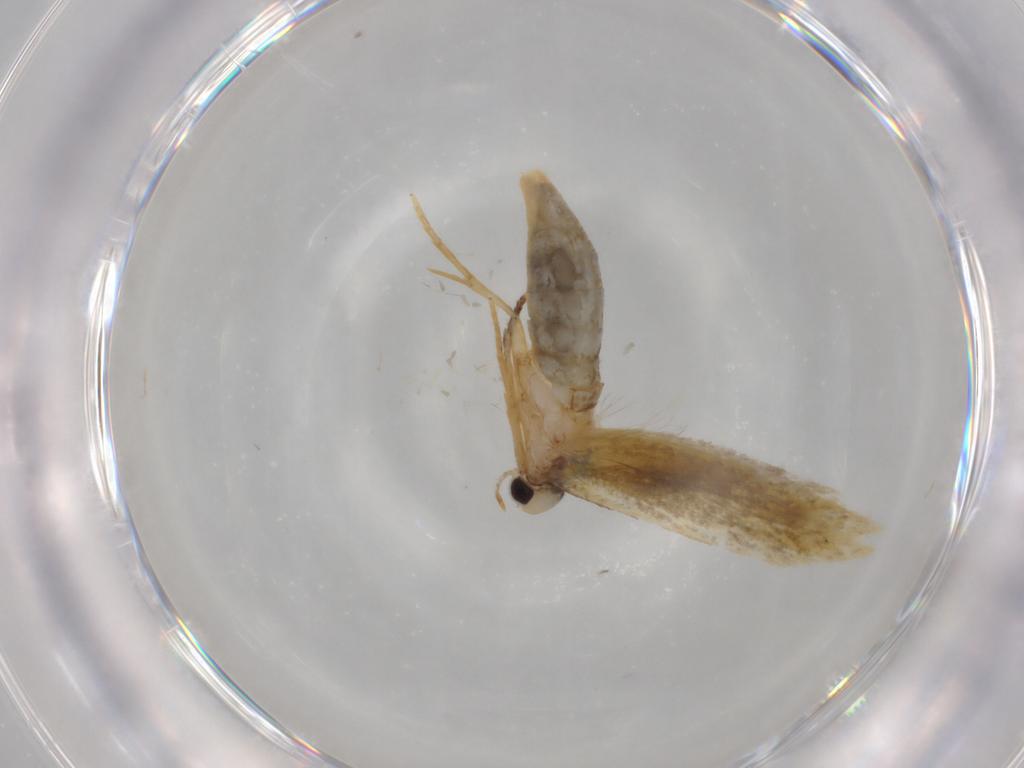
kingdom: Animalia
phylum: Arthropoda
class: Insecta
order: Lepidoptera
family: Tineidae
